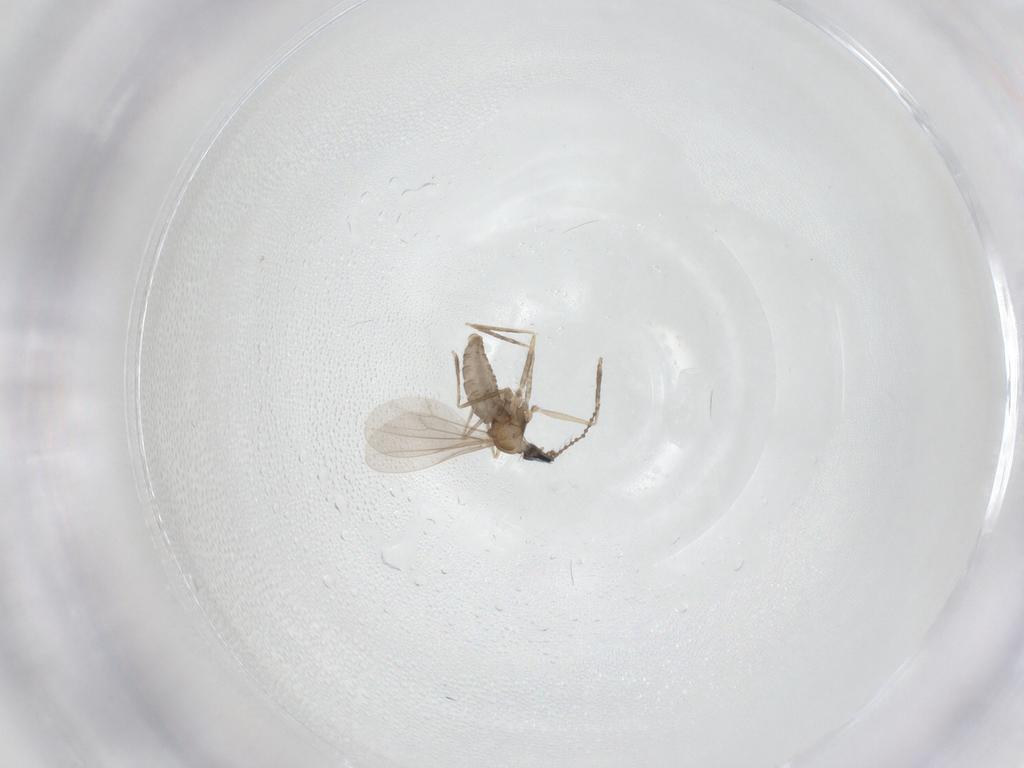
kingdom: Animalia
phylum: Arthropoda
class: Insecta
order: Diptera
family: Cecidomyiidae
